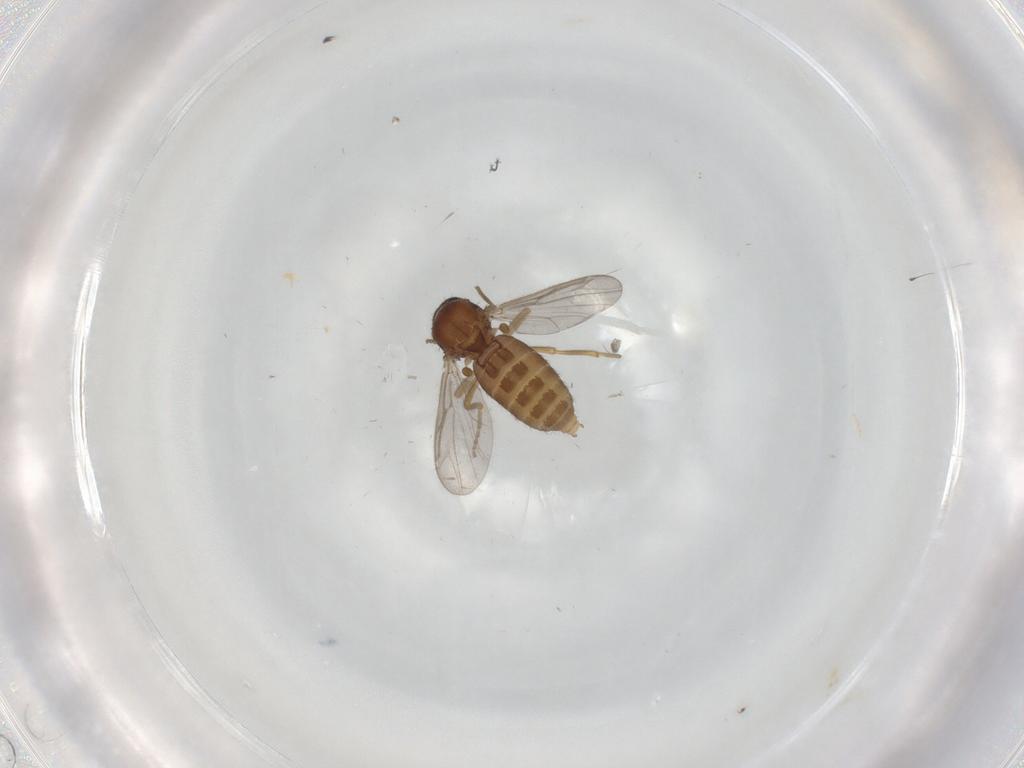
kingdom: Animalia
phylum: Arthropoda
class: Insecta
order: Diptera
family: Ceratopogonidae
